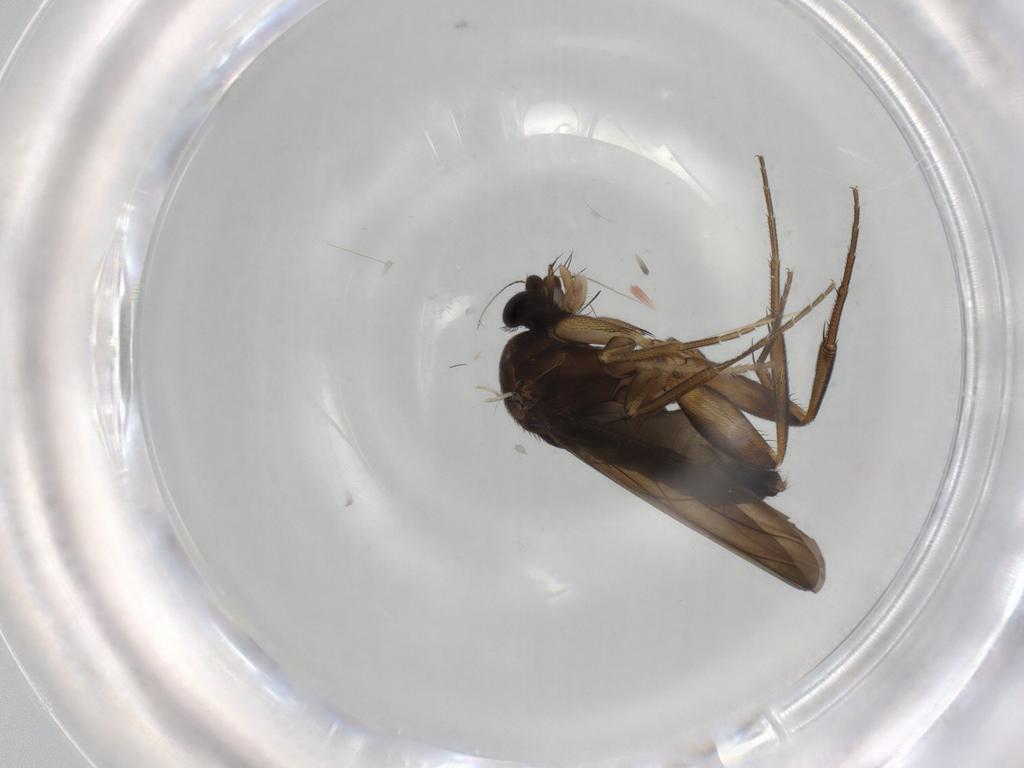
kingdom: Animalia
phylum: Arthropoda
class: Insecta
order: Diptera
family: Phoridae
